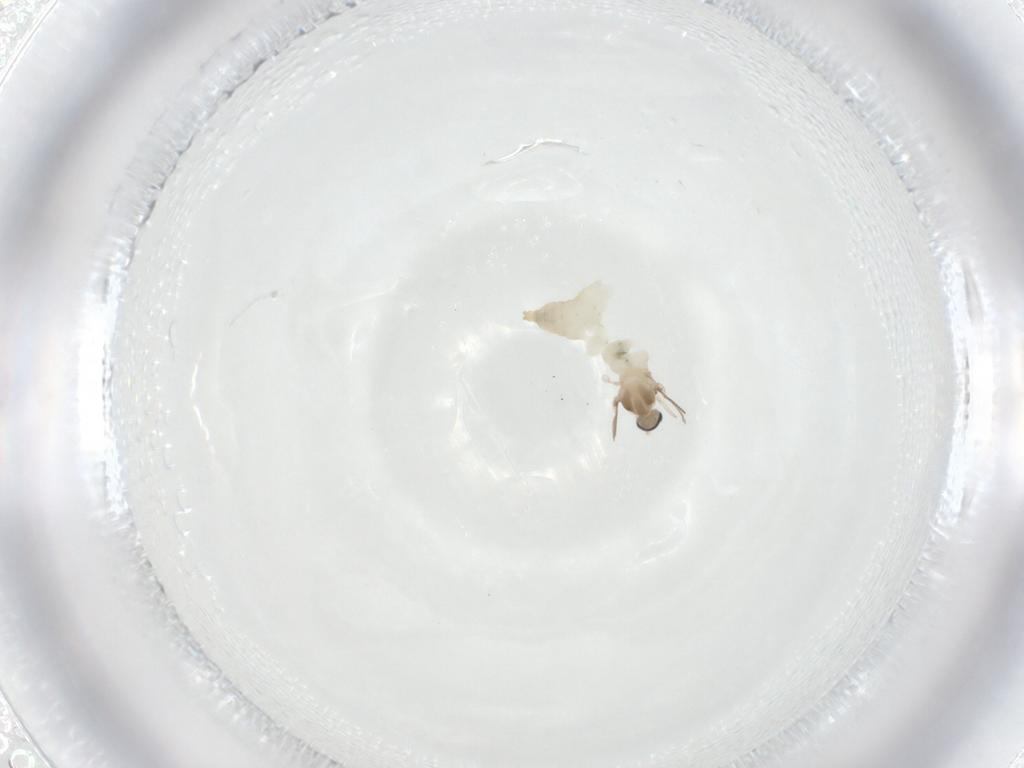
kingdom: Animalia
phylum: Arthropoda
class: Insecta
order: Diptera
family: Cecidomyiidae
